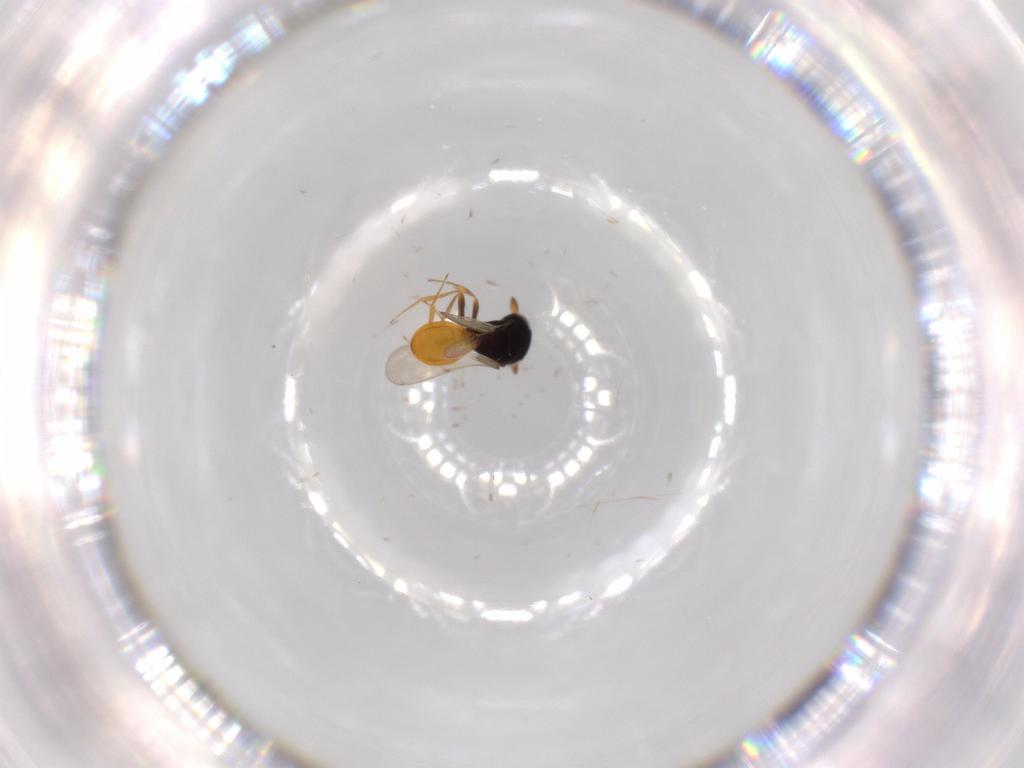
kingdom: Animalia
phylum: Arthropoda
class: Insecta
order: Hymenoptera
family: Scelionidae
